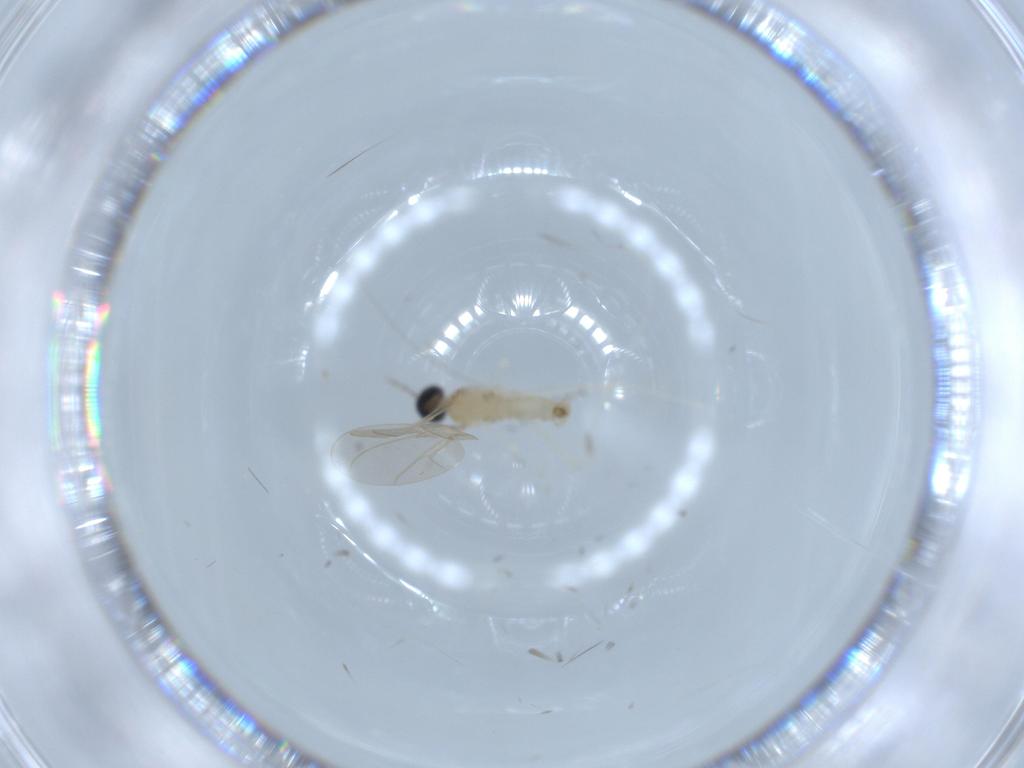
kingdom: Animalia
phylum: Arthropoda
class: Insecta
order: Diptera
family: Cecidomyiidae
